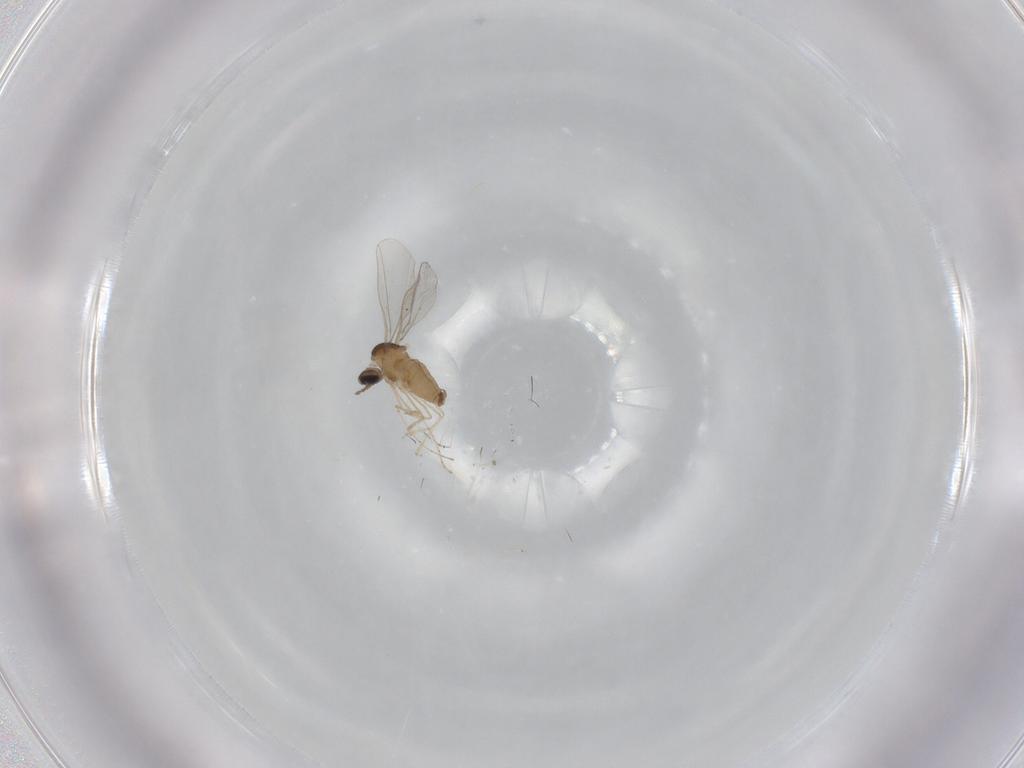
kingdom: Animalia
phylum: Arthropoda
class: Insecta
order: Diptera
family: Cecidomyiidae
